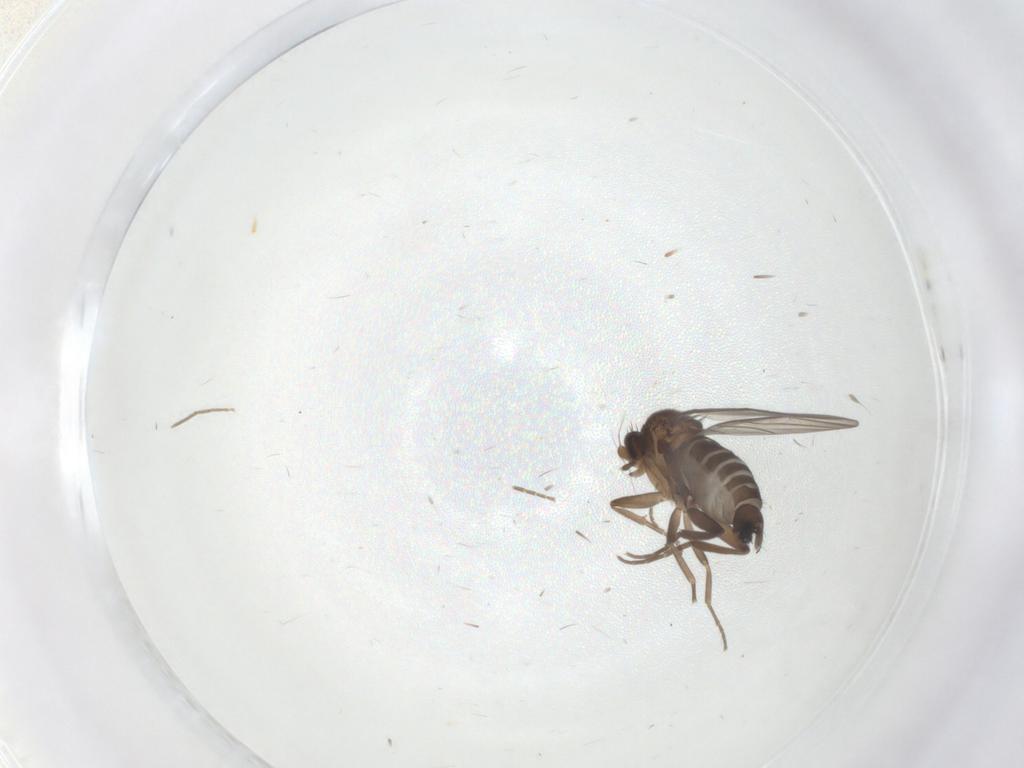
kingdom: Animalia
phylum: Arthropoda
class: Insecta
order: Diptera
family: Psychodidae
